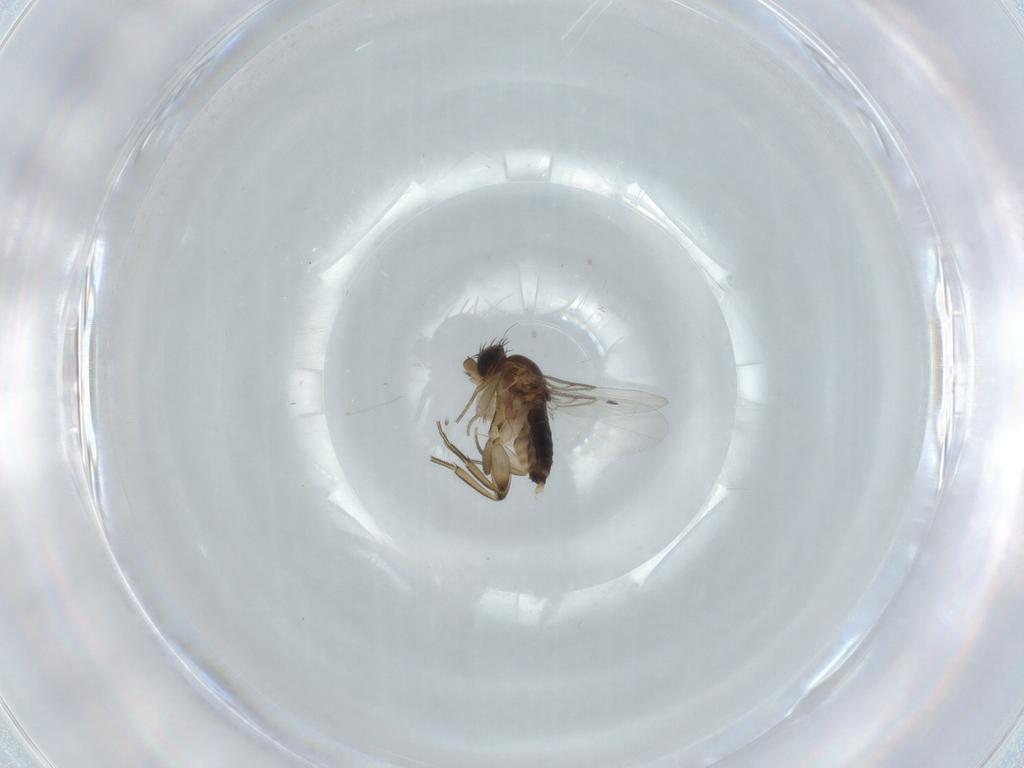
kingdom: Animalia
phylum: Arthropoda
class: Insecta
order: Diptera
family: Phoridae
